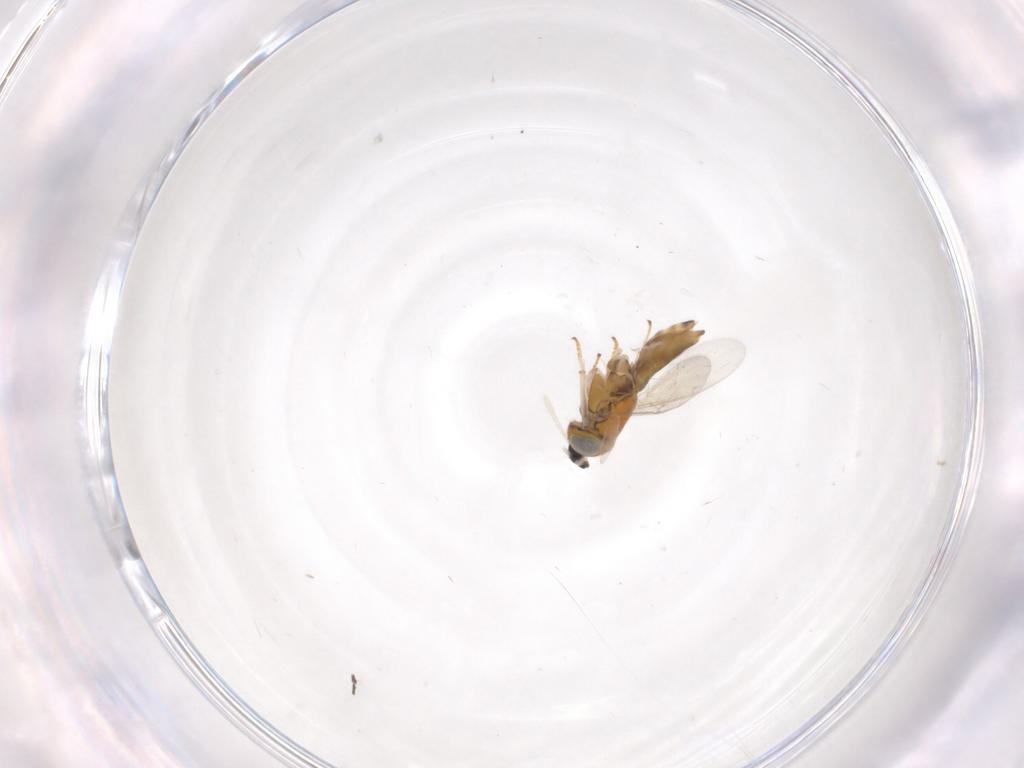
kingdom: Animalia
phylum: Arthropoda
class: Insecta
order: Hymenoptera
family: Encyrtidae
